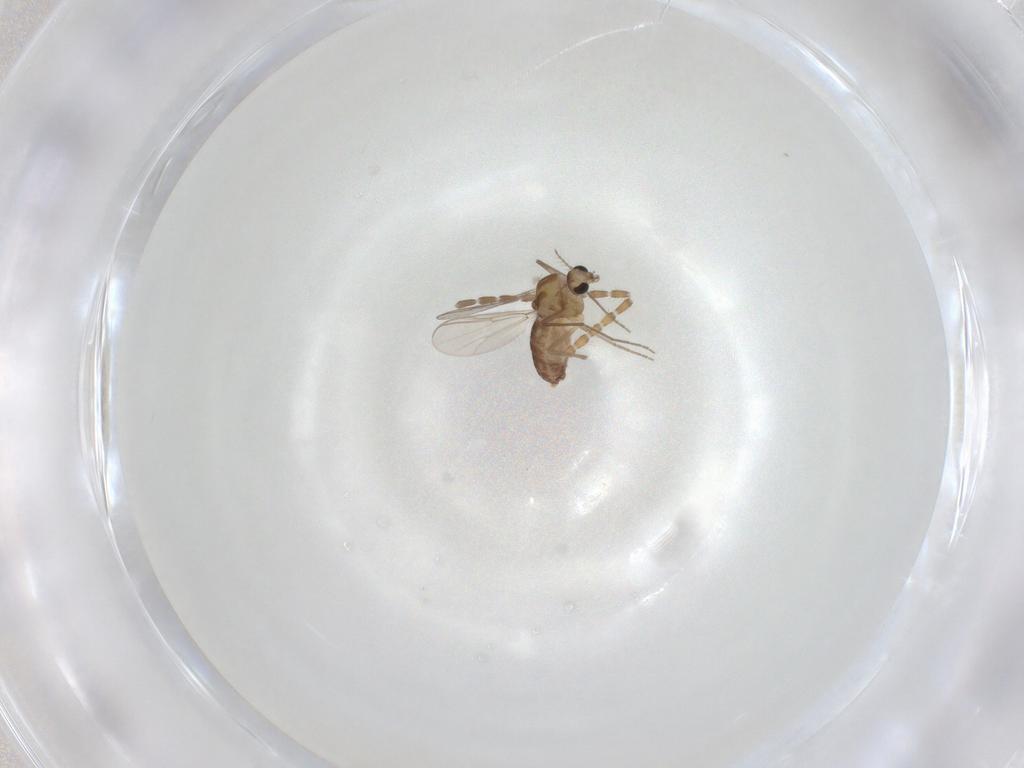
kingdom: Animalia
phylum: Arthropoda
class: Insecta
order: Diptera
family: Chironomidae
